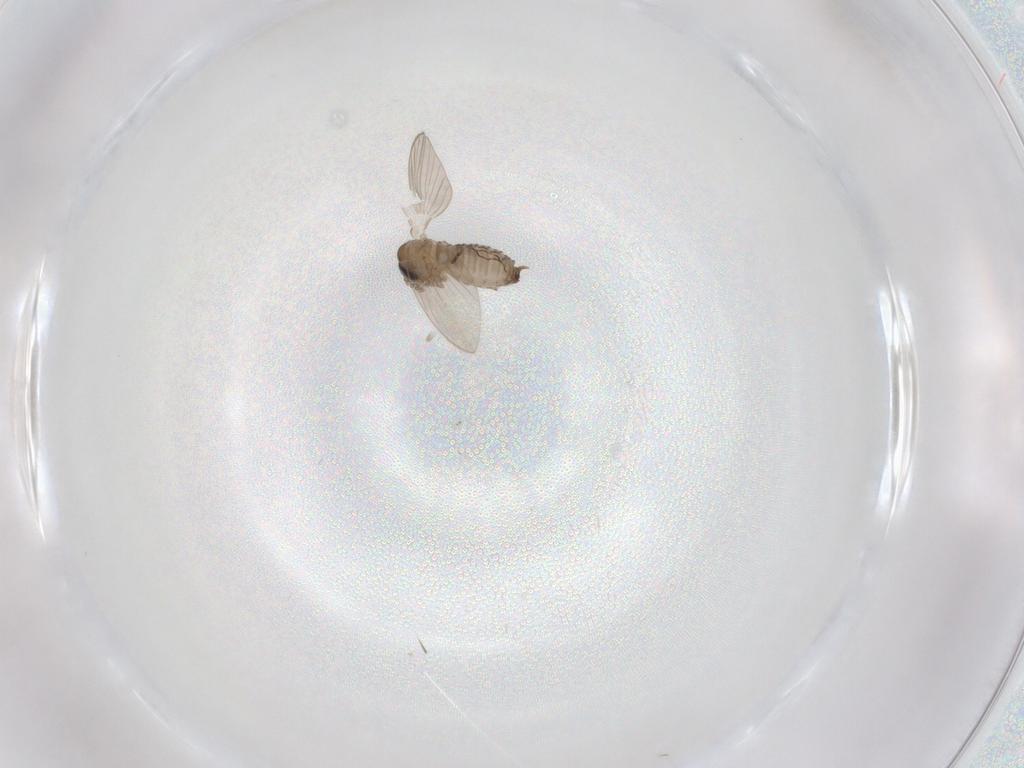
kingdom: Animalia
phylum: Arthropoda
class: Insecta
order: Diptera
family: Psychodidae
